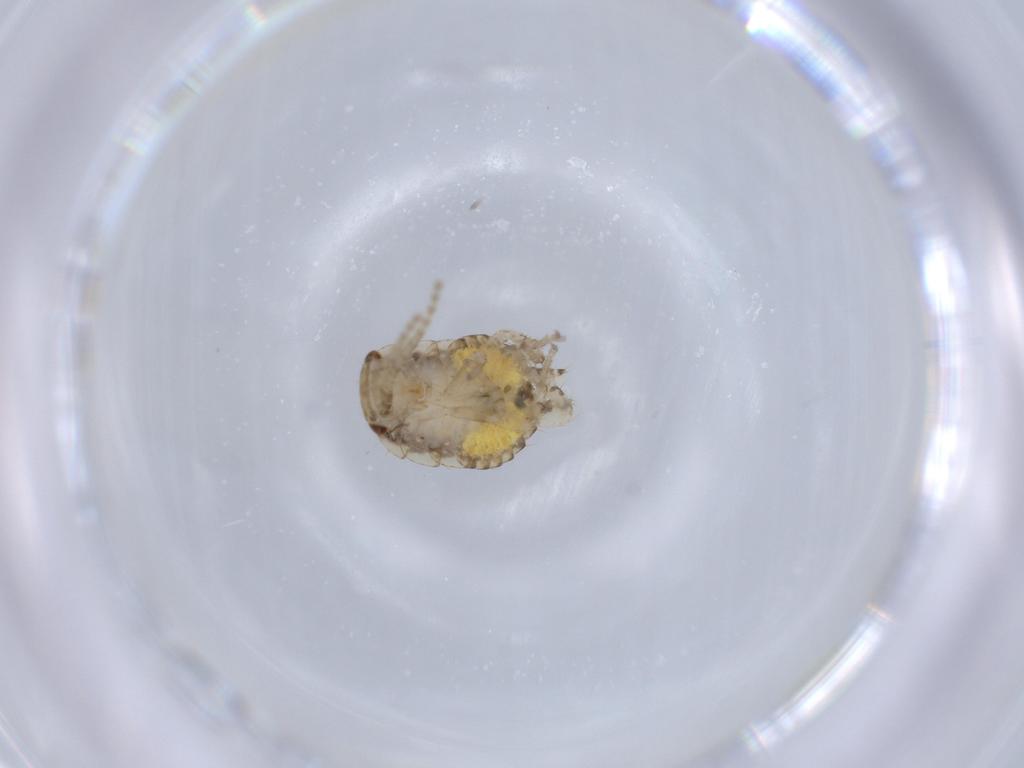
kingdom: Animalia
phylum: Arthropoda
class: Insecta
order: Blattodea
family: Ectobiidae
